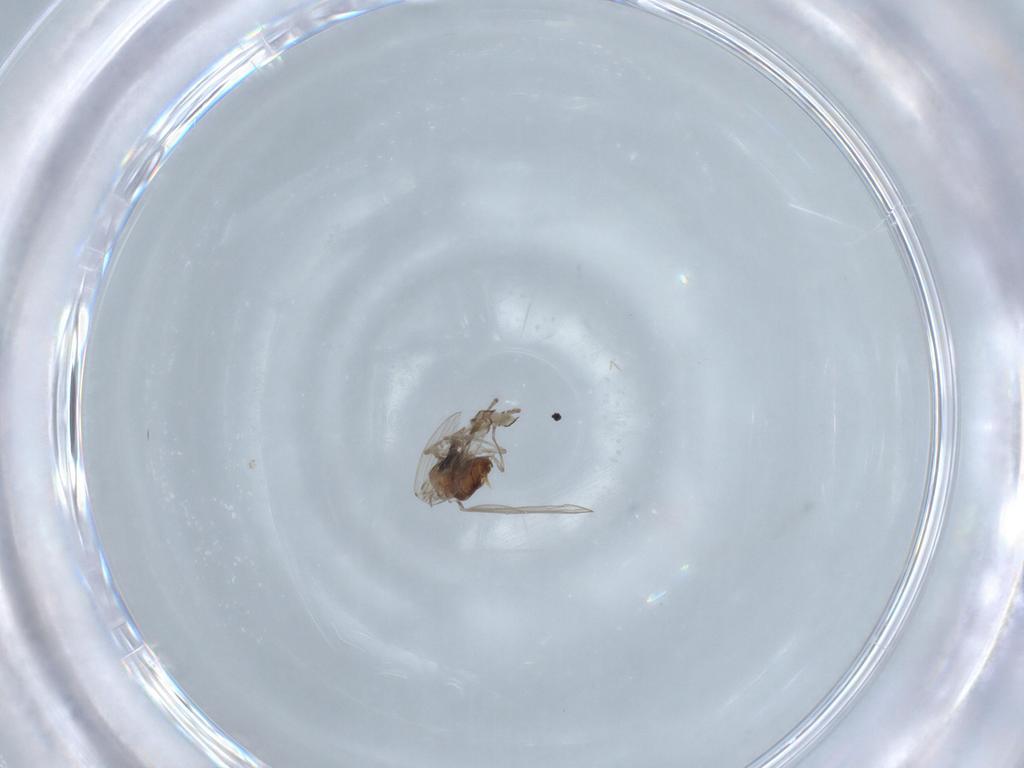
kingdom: Animalia
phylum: Arthropoda
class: Insecta
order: Diptera
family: Psychodidae
